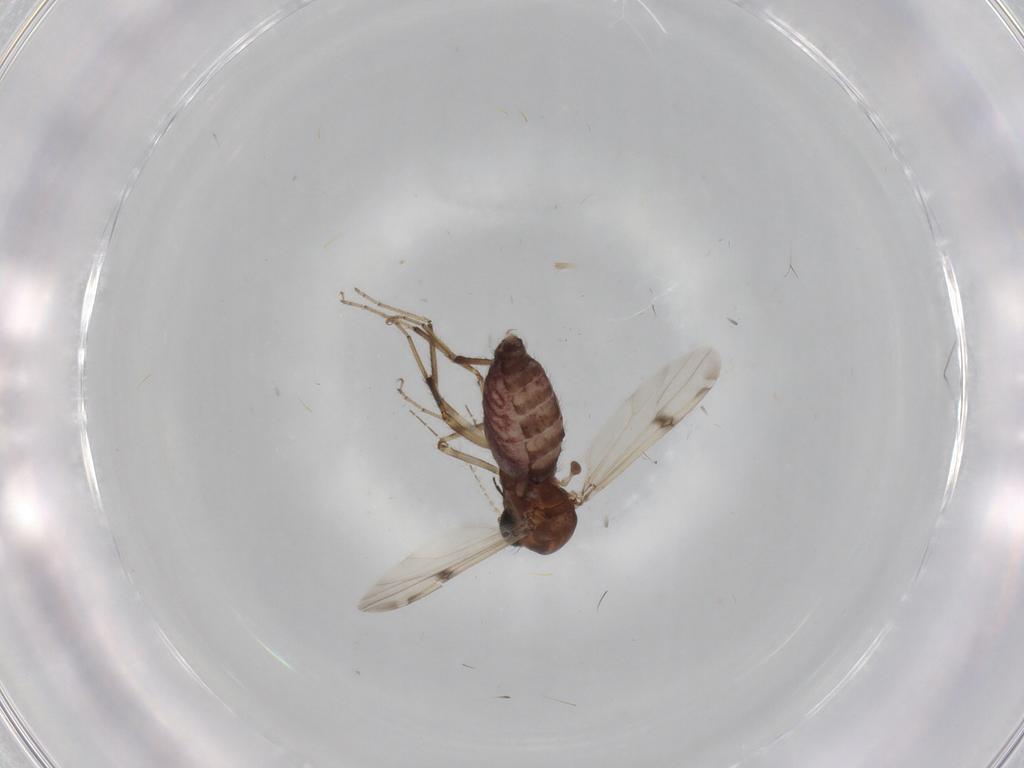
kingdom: Animalia
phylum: Arthropoda
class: Insecta
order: Diptera
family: Ceratopogonidae
